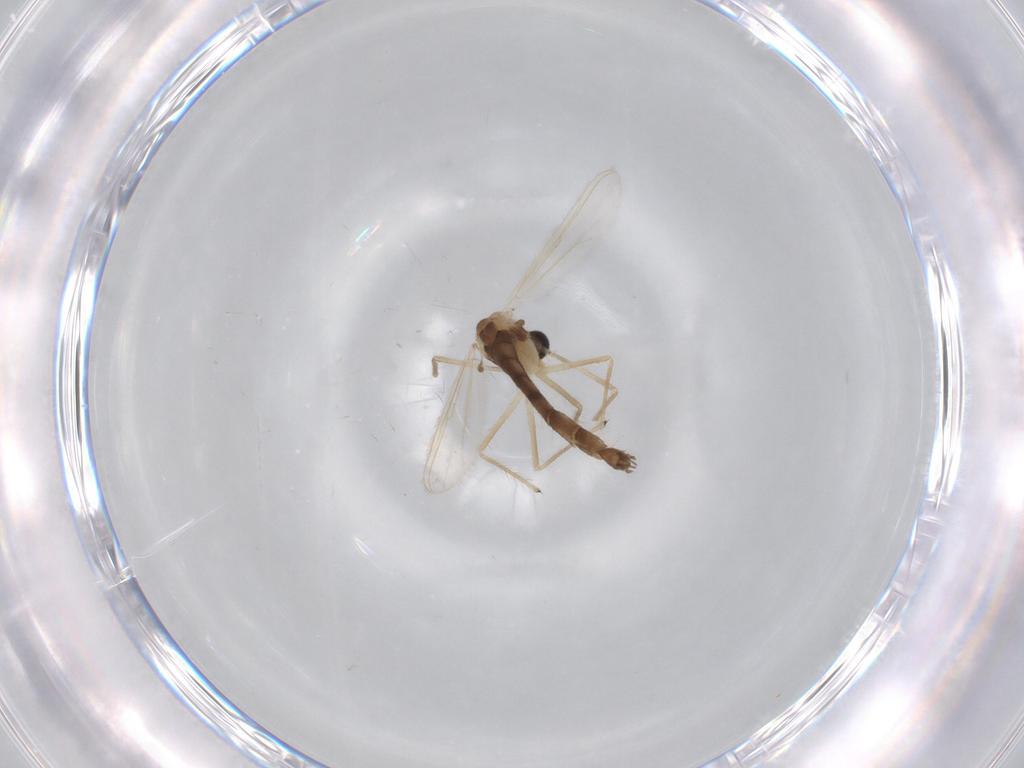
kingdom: Animalia
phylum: Arthropoda
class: Insecta
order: Diptera
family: Chironomidae
